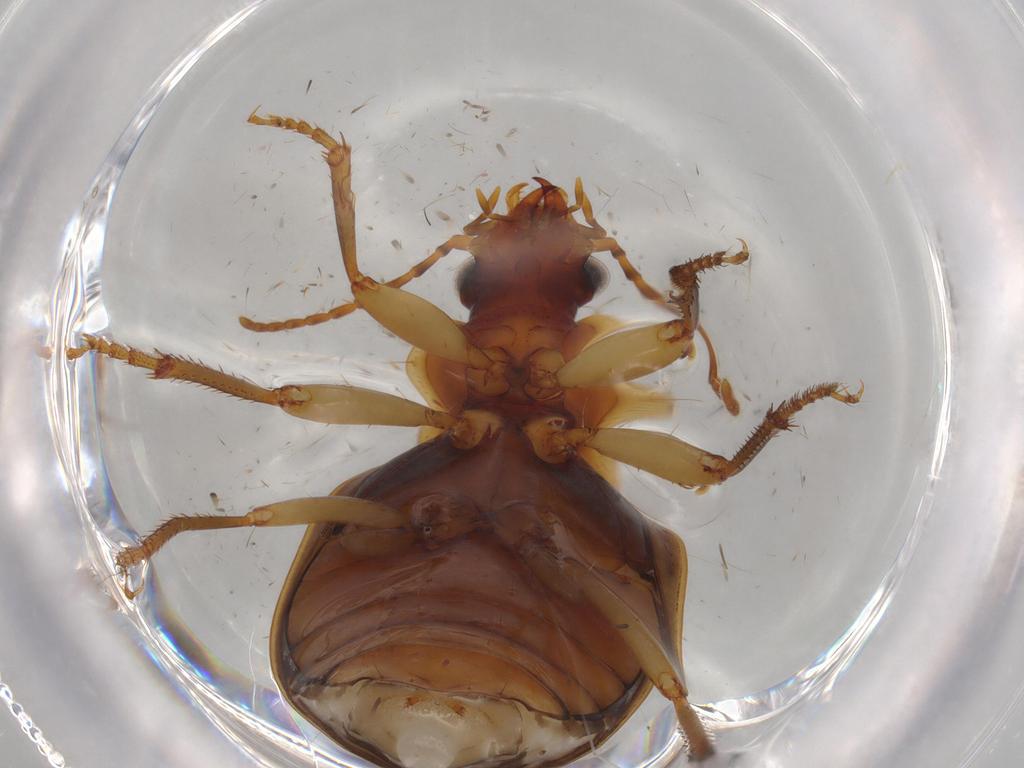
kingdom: Animalia
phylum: Arthropoda
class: Insecta
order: Coleoptera
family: Carabidae
